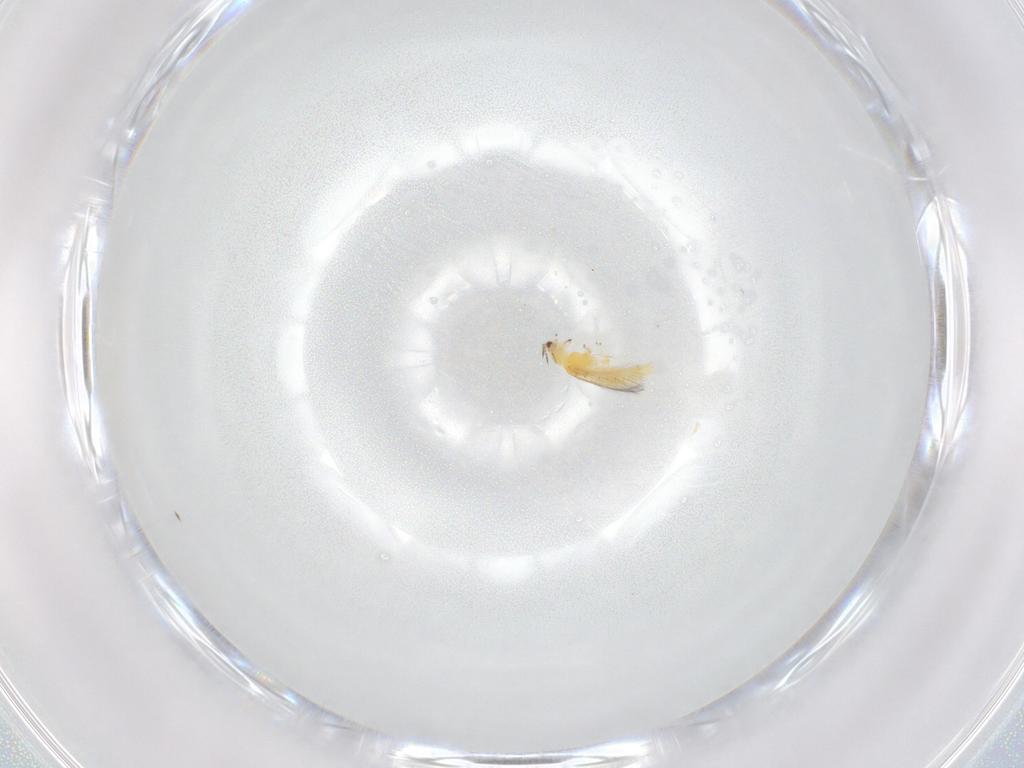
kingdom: Animalia
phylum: Arthropoda
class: Insecta
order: Thysanoptera
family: Thripidae
